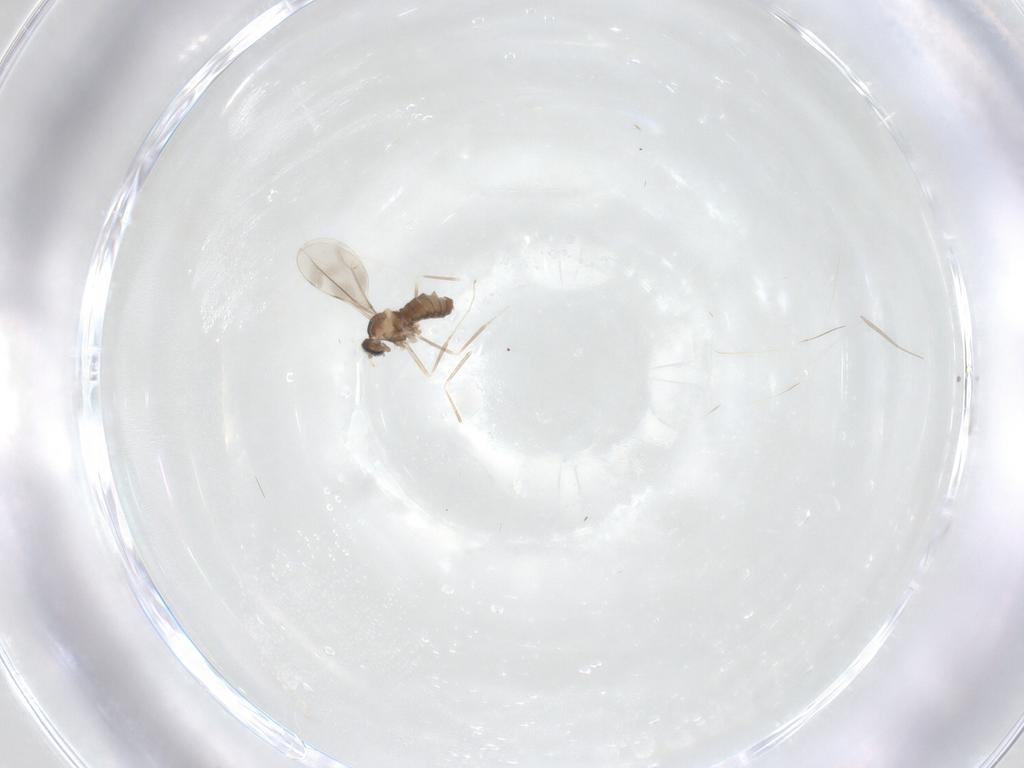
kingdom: Animalia
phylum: Arthropoda
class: Insecta
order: Diptera
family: Cecidomyiidae
